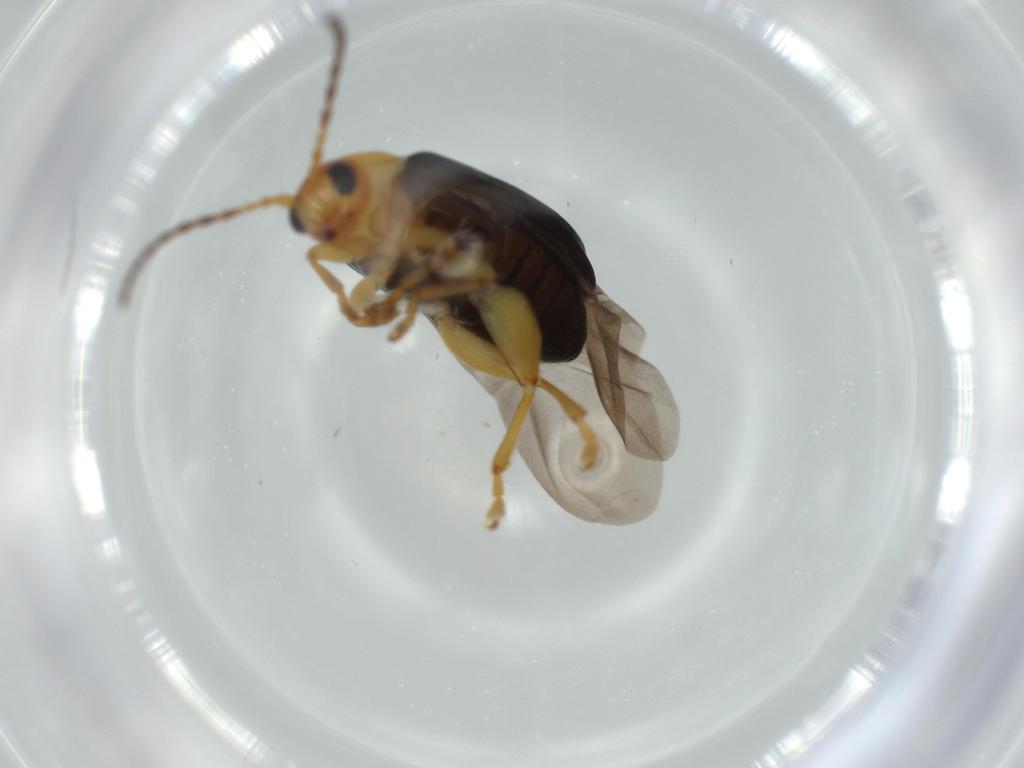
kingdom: Animalia
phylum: Arthropoda
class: Insecta
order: Coleoptera
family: Chrysomelidae
